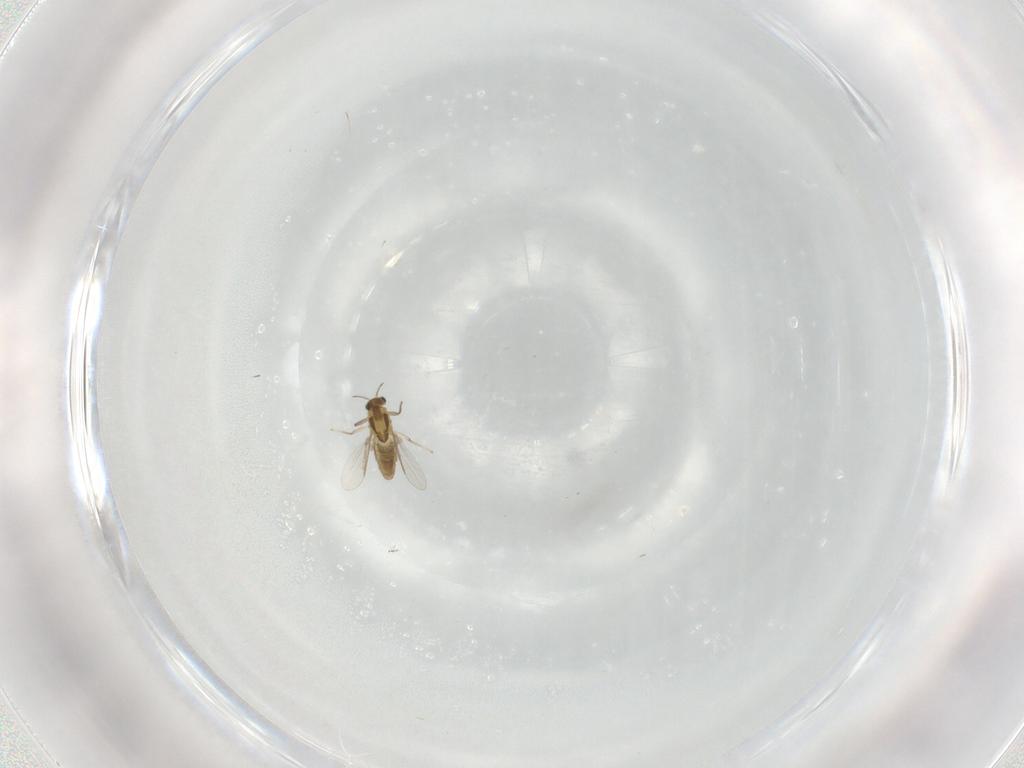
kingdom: Animalia
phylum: Arthropoda
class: Insecta
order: Diptera
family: Chironomidae
